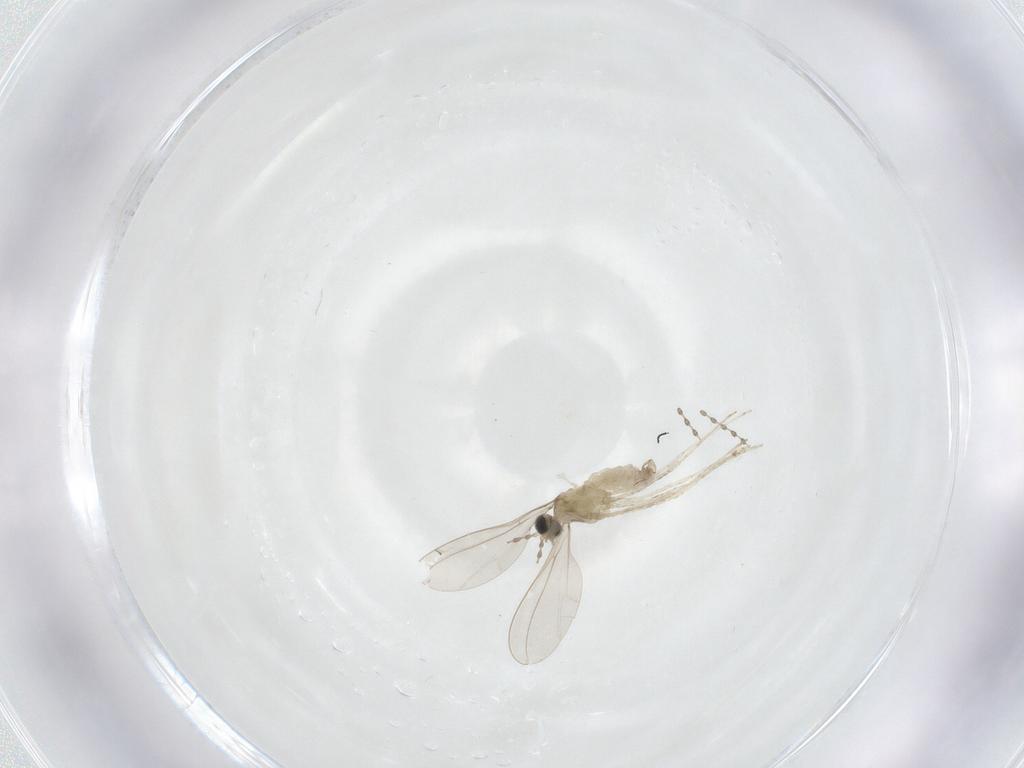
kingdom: Animalia
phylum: Arthropoda
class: Insecta
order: Diptera
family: Cecidomyiidae
